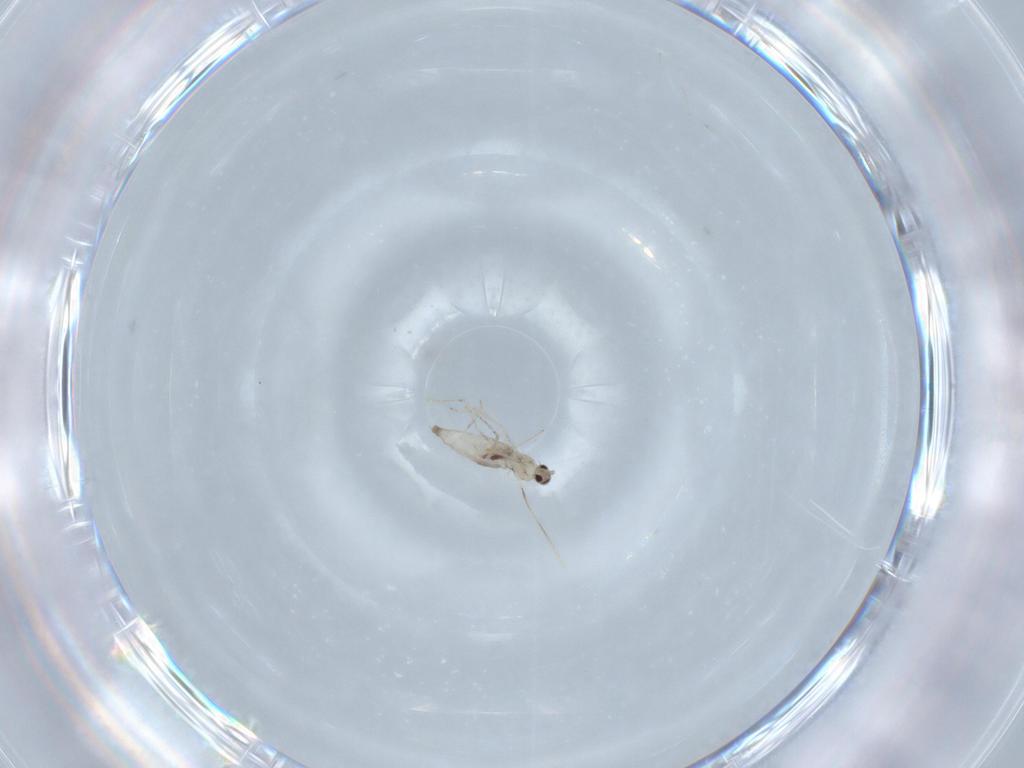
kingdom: Animalia
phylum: Arthropoda
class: Insecta
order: Diptera
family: Cecidomyiidae
